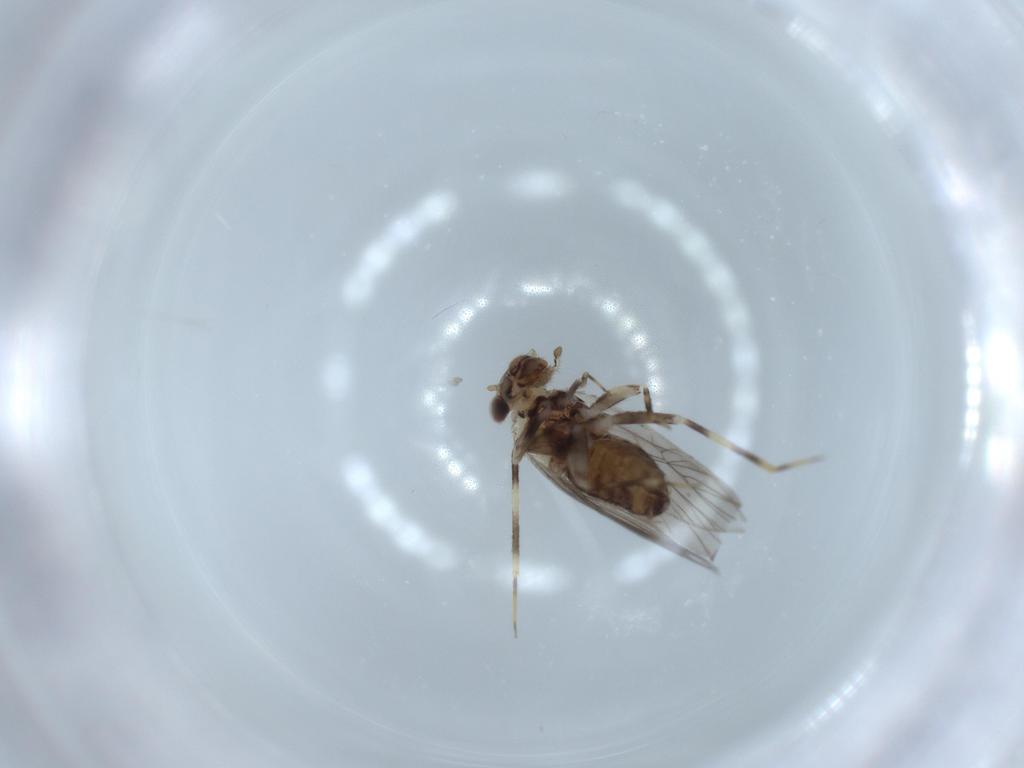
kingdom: Animalia
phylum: Arthropoda
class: Insecta
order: Psocodea
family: Lepidopsocidae
